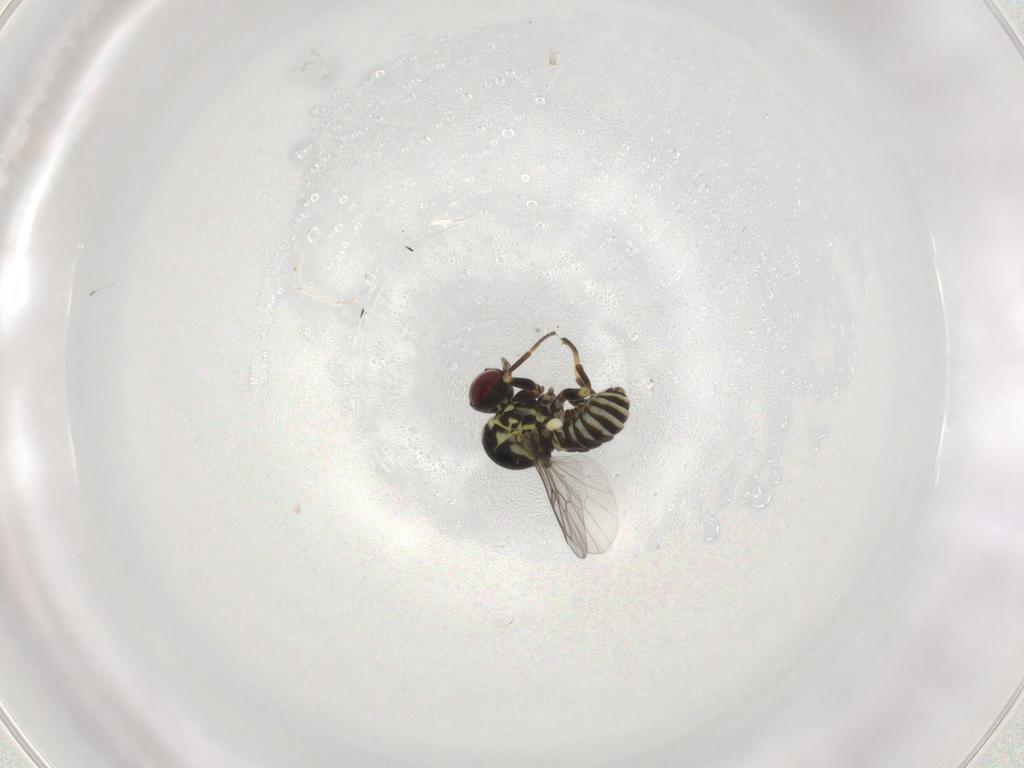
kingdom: Animalia
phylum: Arthropoda
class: Insecta
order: Diptera
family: Mythicomyiidae
